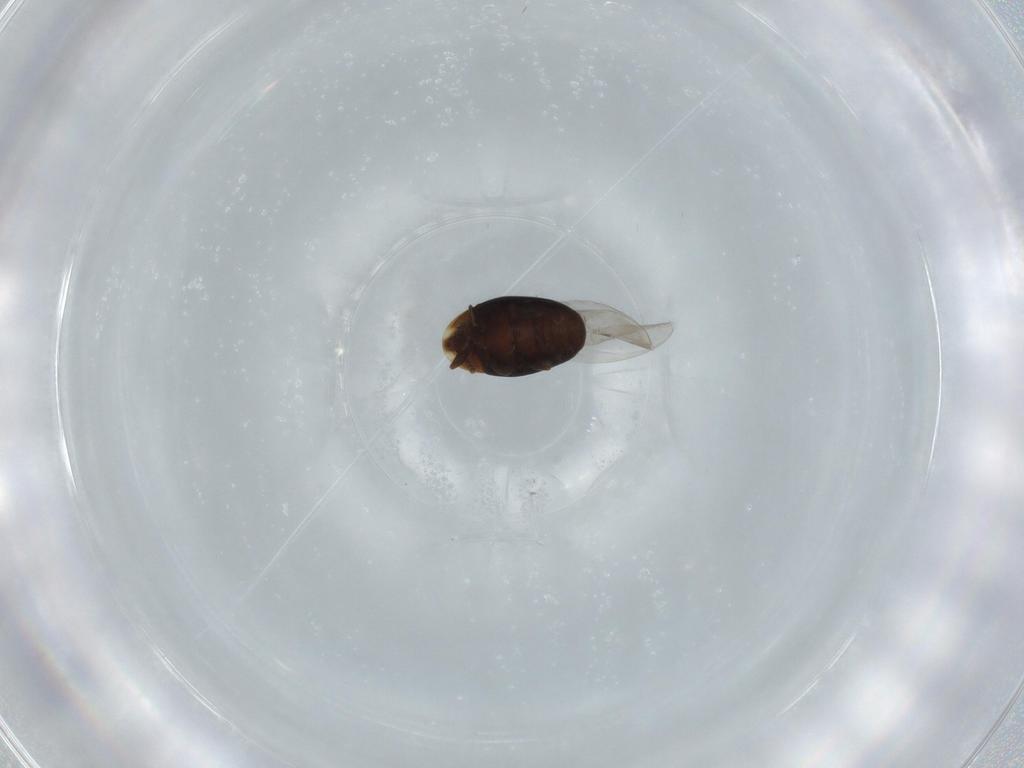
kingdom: Animalia
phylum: Arthropoda
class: Insecta
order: Coleoptera
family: Corylophidae
